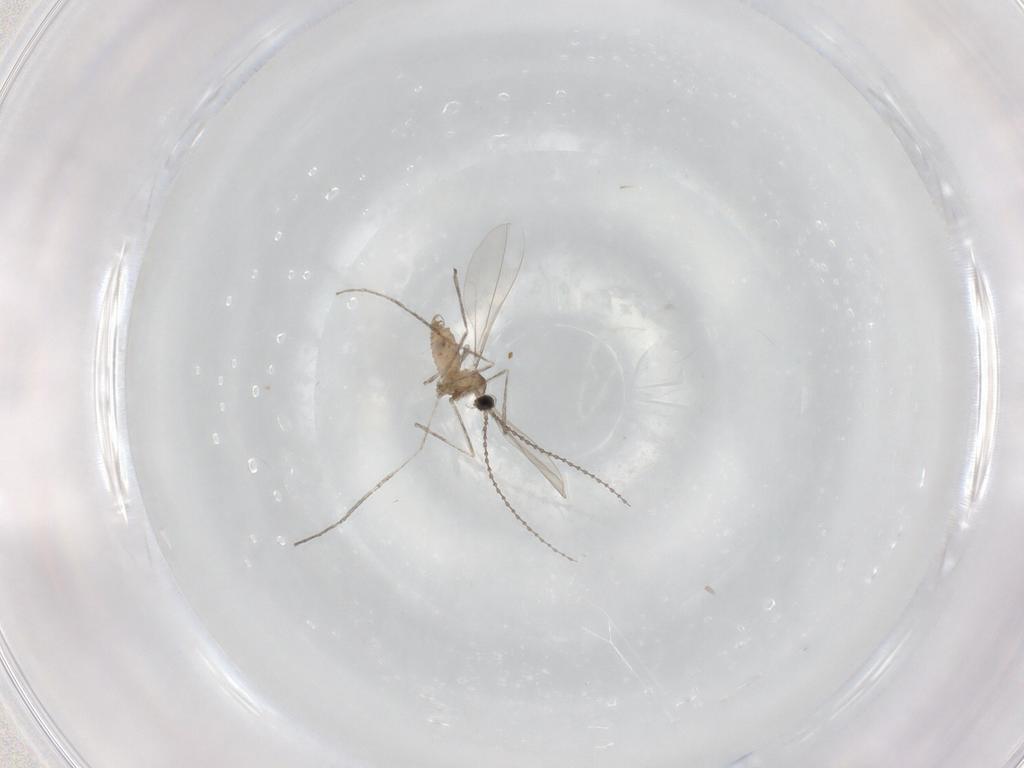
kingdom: Animalia
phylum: Arthropoda
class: Insecta
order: Diptera
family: Cecidomyiidae
